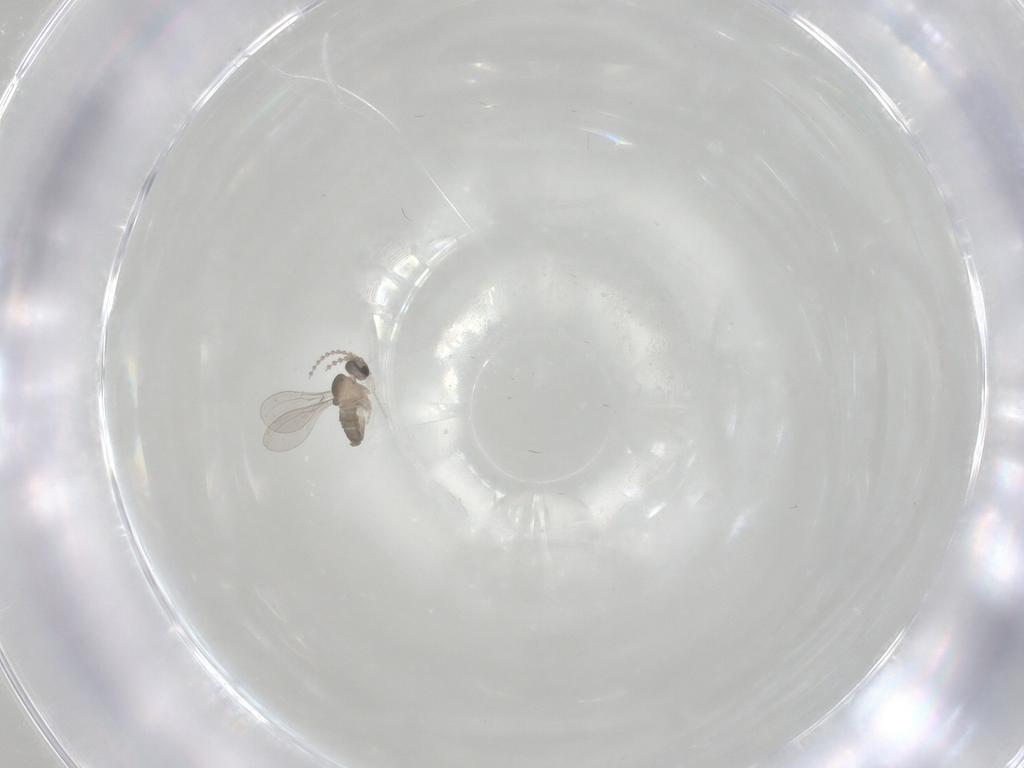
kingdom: Animalia
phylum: Arthropoda
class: Insecta
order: Diptera
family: Cecidomyiidae
